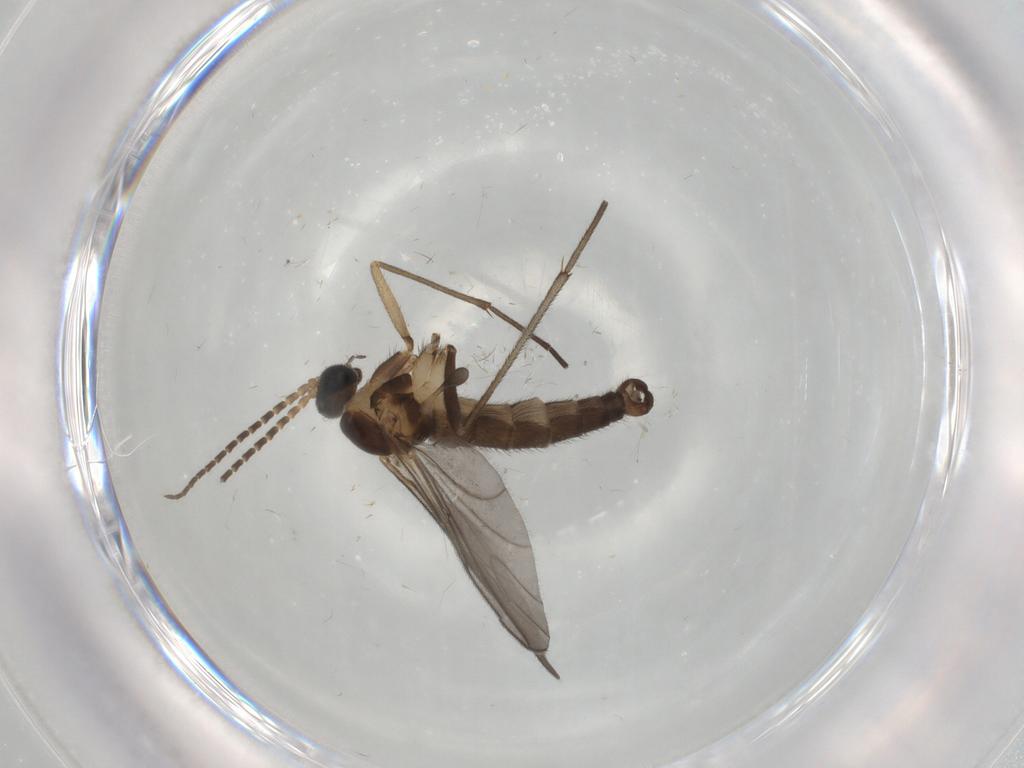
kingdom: Animalia
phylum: Arthropoda
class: Insecta
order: Diptera
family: Sciaridae
